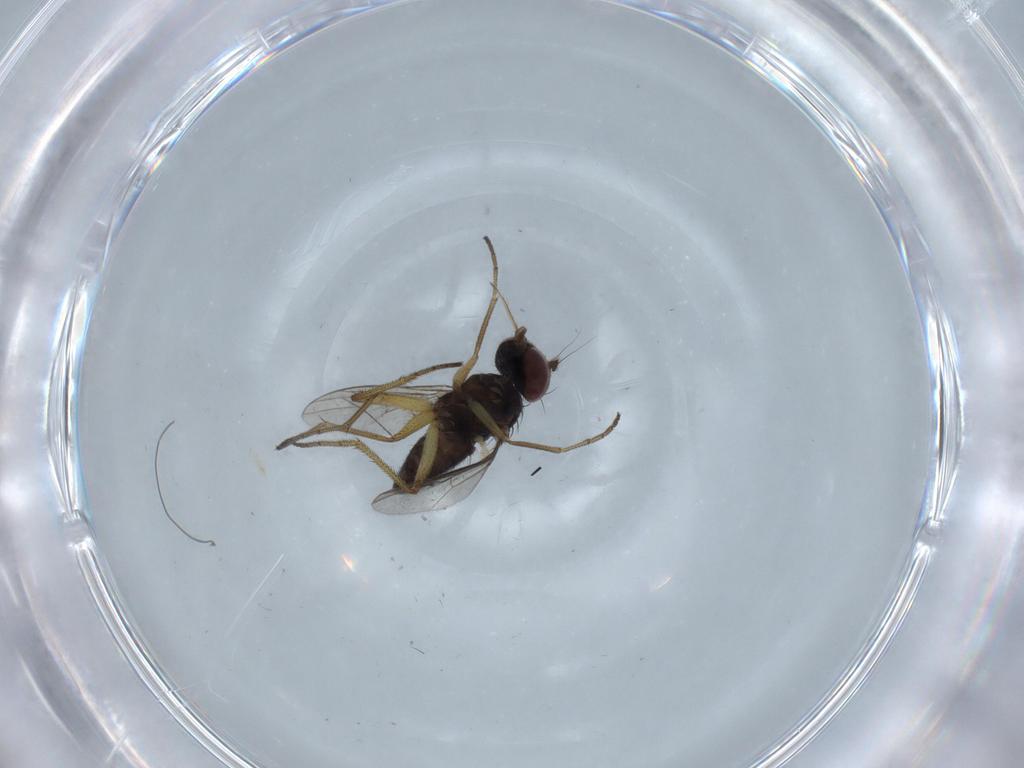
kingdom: Animalia
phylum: Arthropoda
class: Insecta
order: Diptera
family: Dolichopodidae
